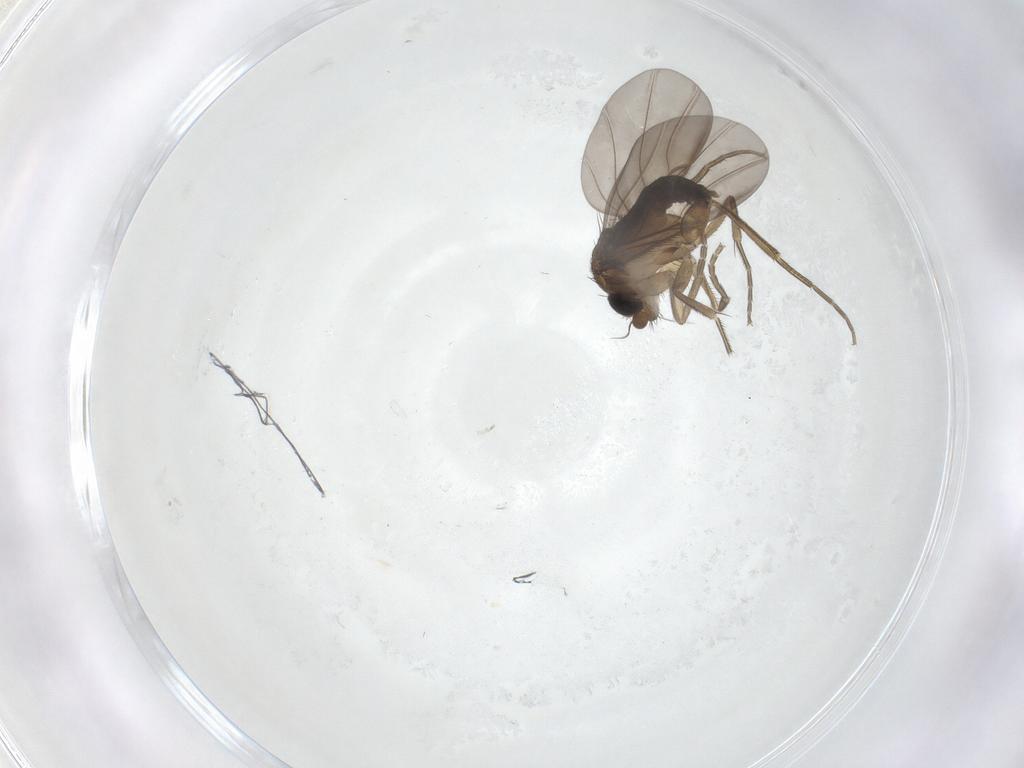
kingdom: Animalia
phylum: Arthropoda
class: Insecta
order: Diptera
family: Phoridae
